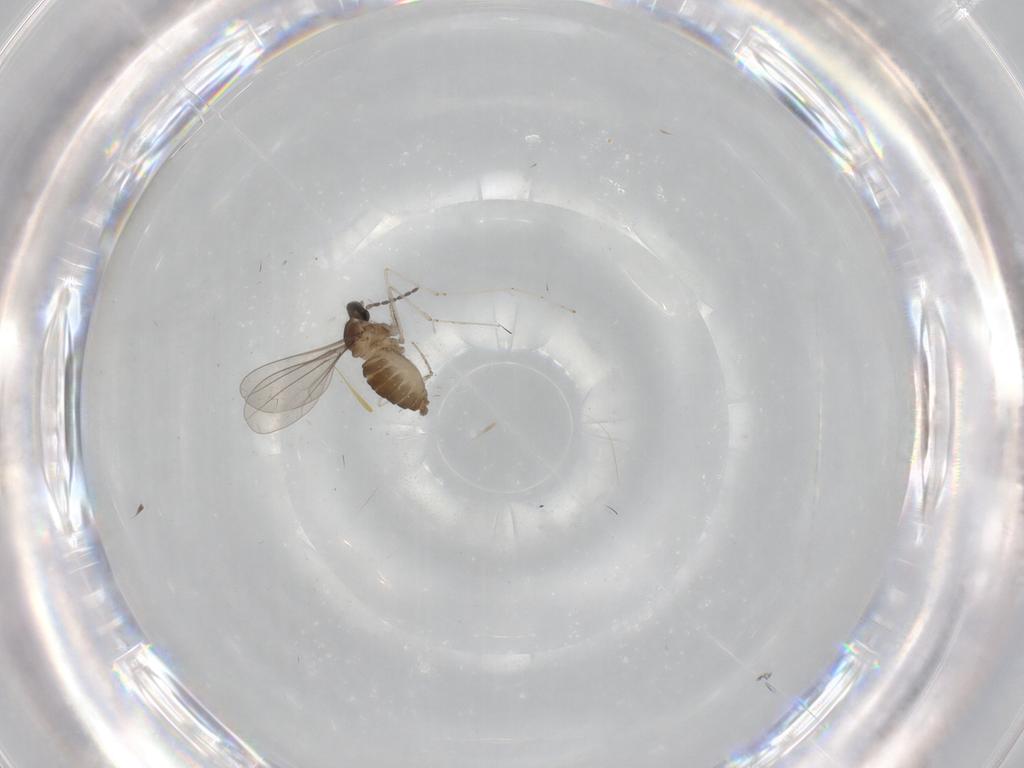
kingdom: Animalia
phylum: Arthropoda
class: Insecta
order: Diptera
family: Cecidomyiidae
